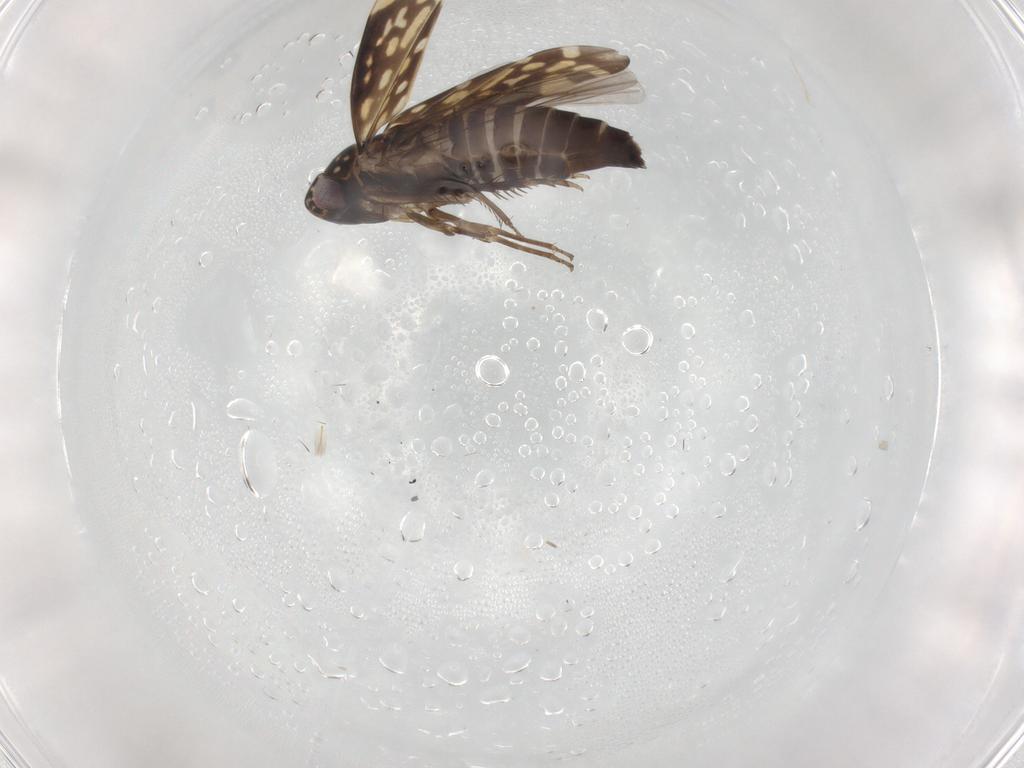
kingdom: Animalia
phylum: Arthropoda
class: Insecta
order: Hemiptera
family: Cicadellidae
